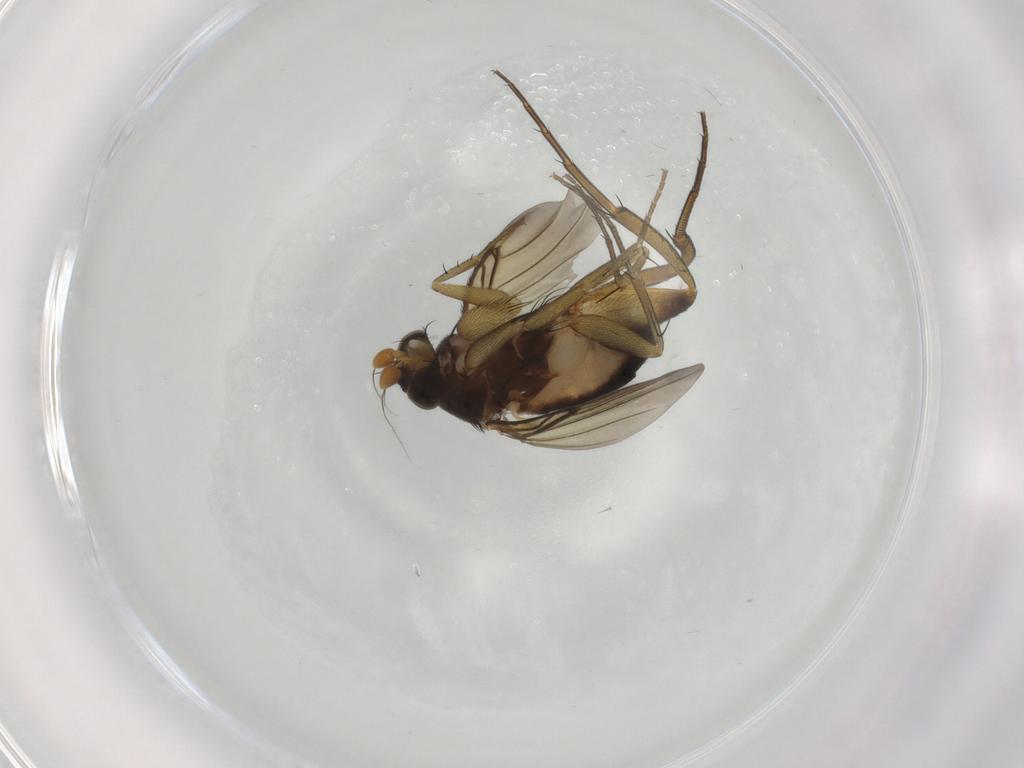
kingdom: Animalia
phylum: Arthropoda
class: Insecta
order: Diptera
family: Phoridae
